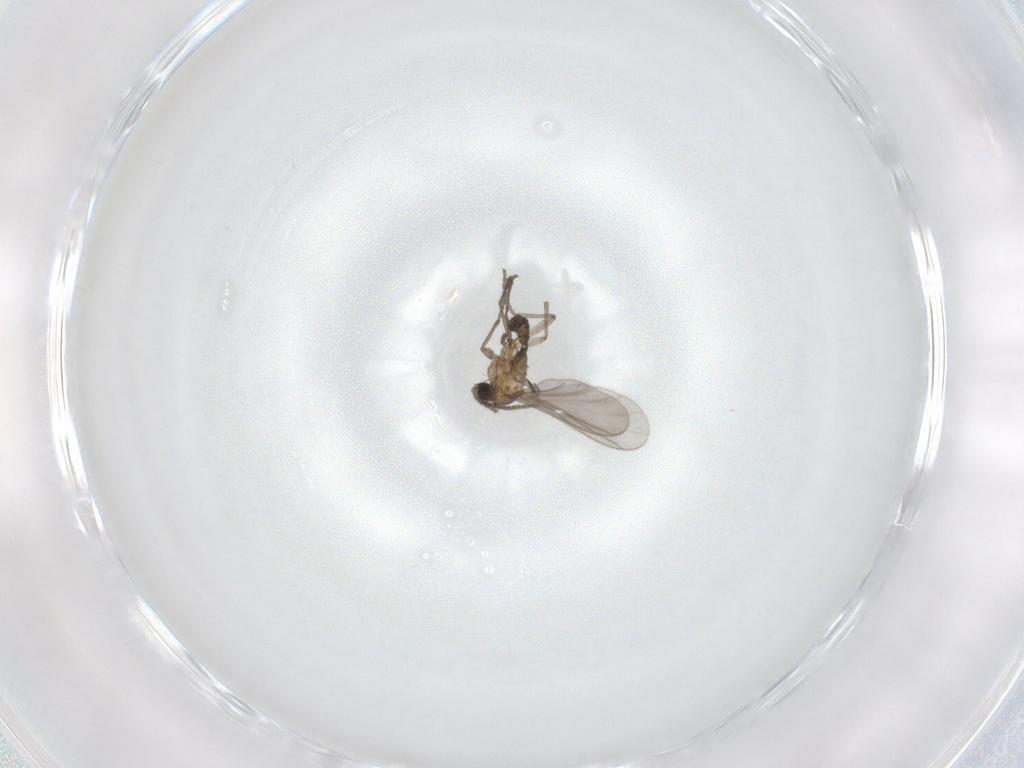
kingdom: Animalia
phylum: Arthropoda
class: Insecta
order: Diptera
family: Sciaridae
